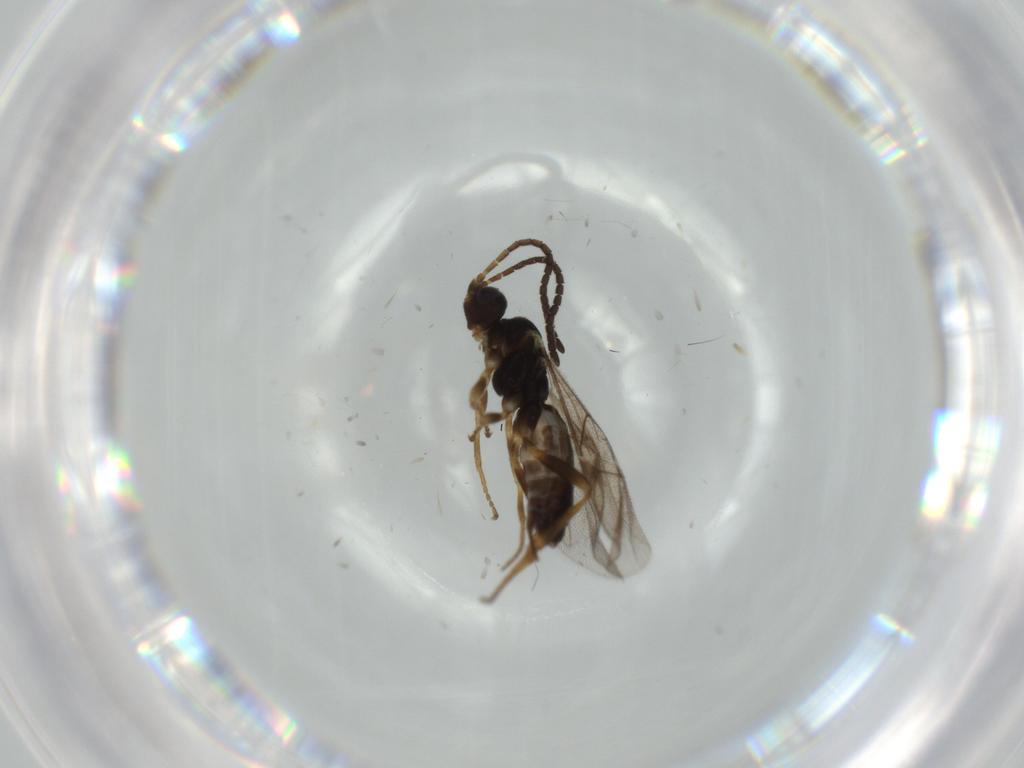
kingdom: Animalia
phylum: Arthropoda
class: Insecta
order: Hymenoptera
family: Ichneumonidae
